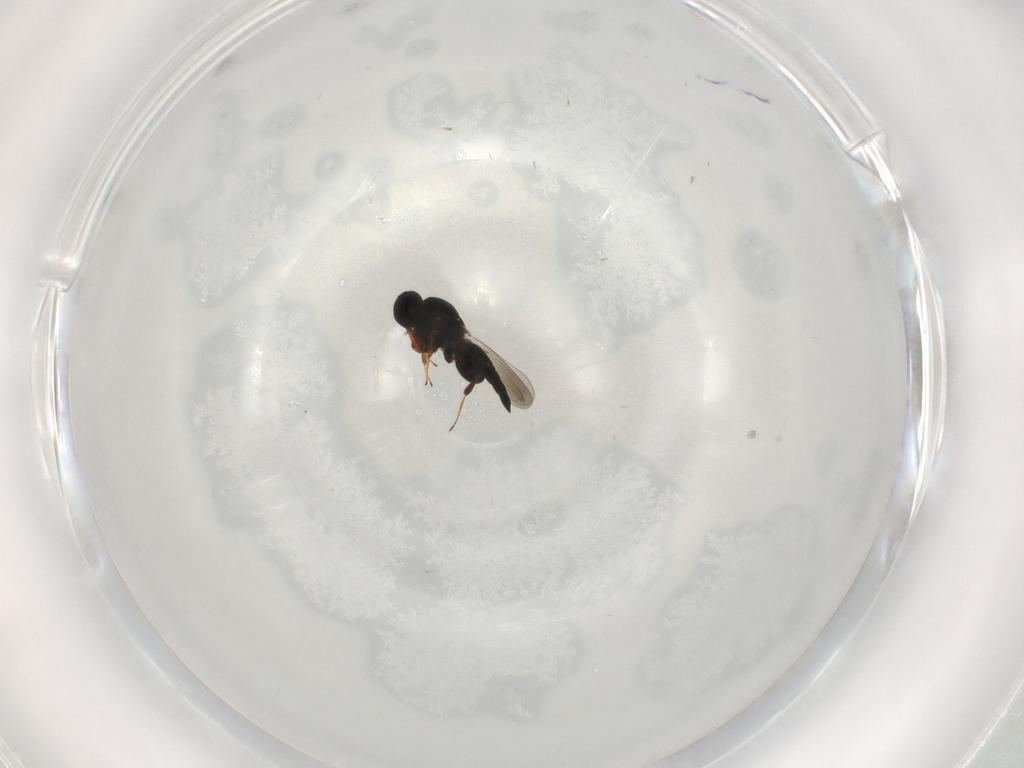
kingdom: Animalia
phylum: Arthropoda
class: Insecta
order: Hymenoptera
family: Platygastridae
